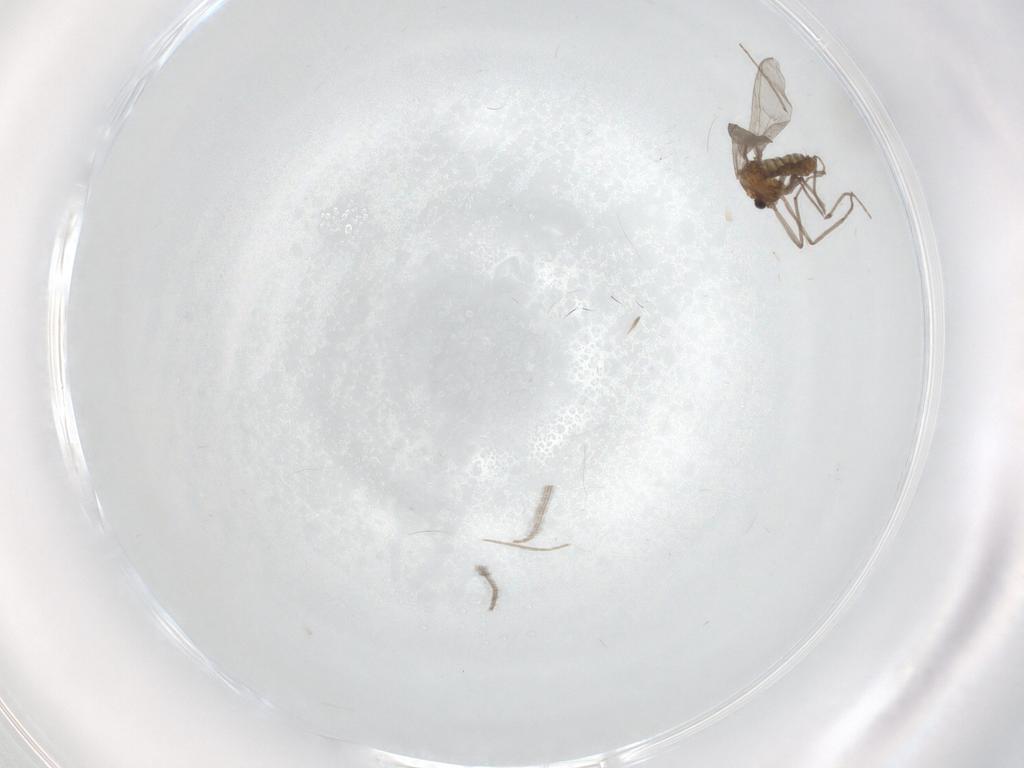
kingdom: Animalia
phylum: Arthropoda
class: Insecta
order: Diptera
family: Chironomidae
